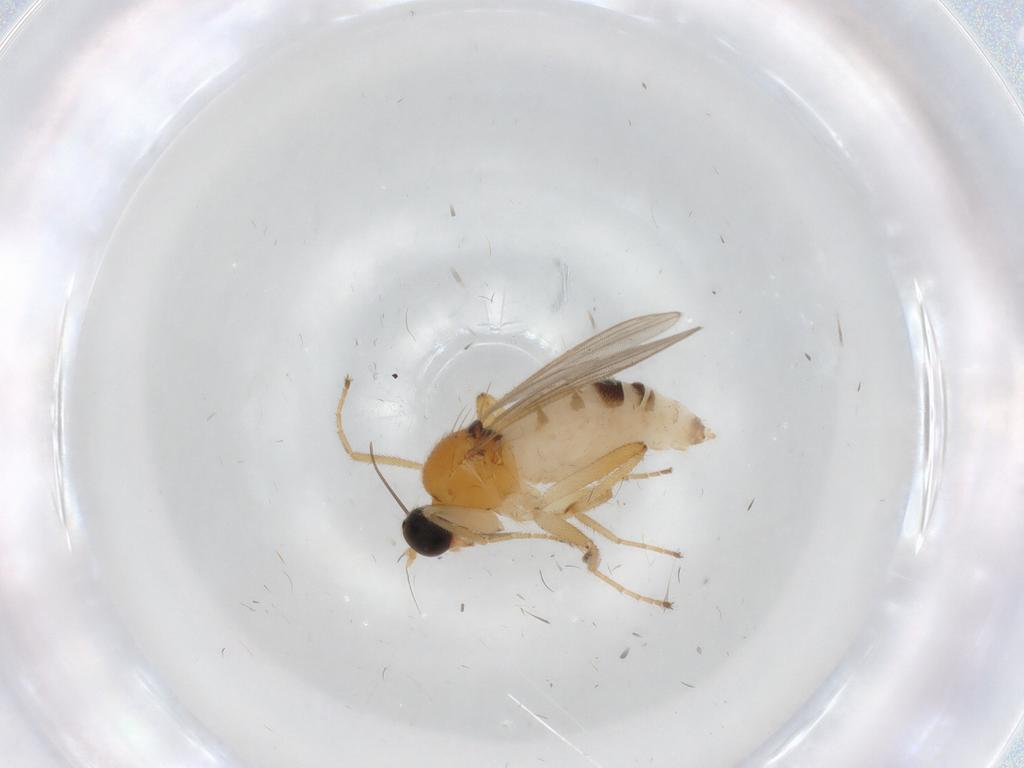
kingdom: Animalia
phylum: Arthropoda
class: Insecta
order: Diptera
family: Hybotidae
